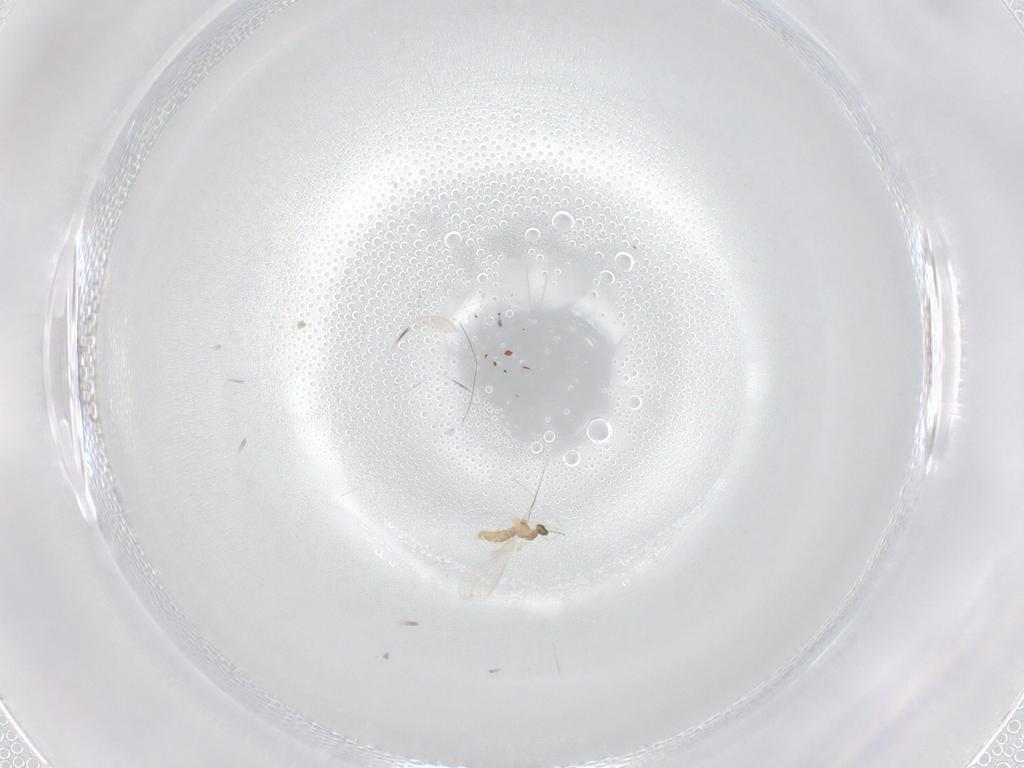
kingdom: Animalia
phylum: Arthropoda
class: Insecta
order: Diptera
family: Cecidomyiidae
